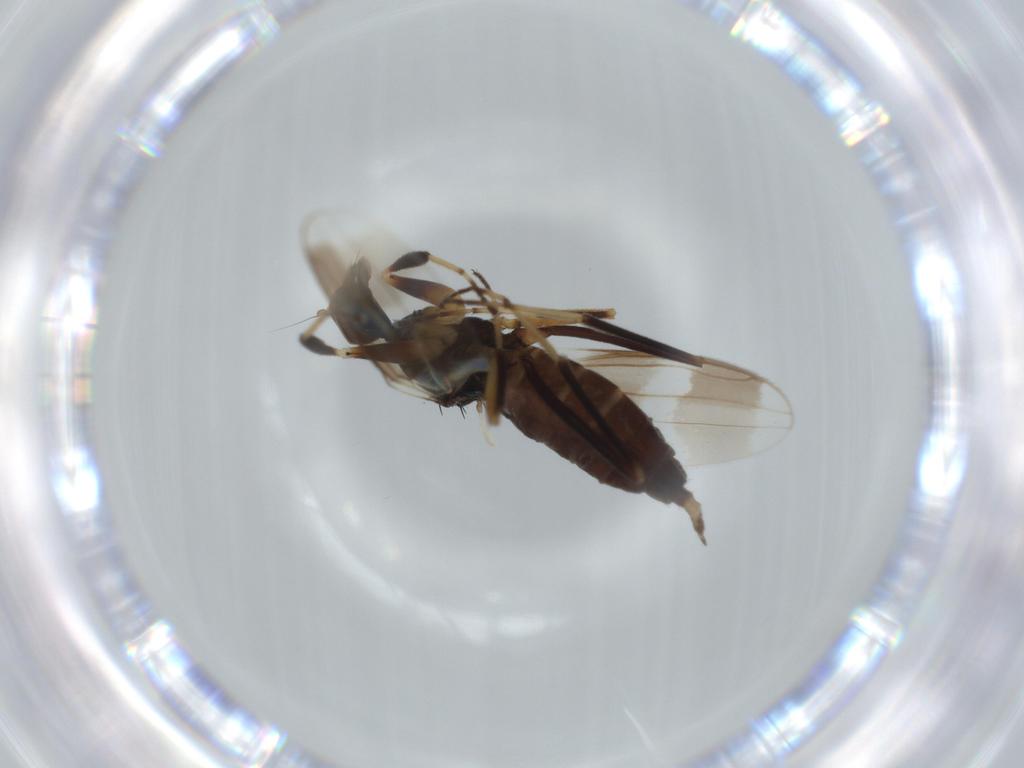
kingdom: Animalia
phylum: Arthropoda
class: Insecta
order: Diptera
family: Hybotidae
